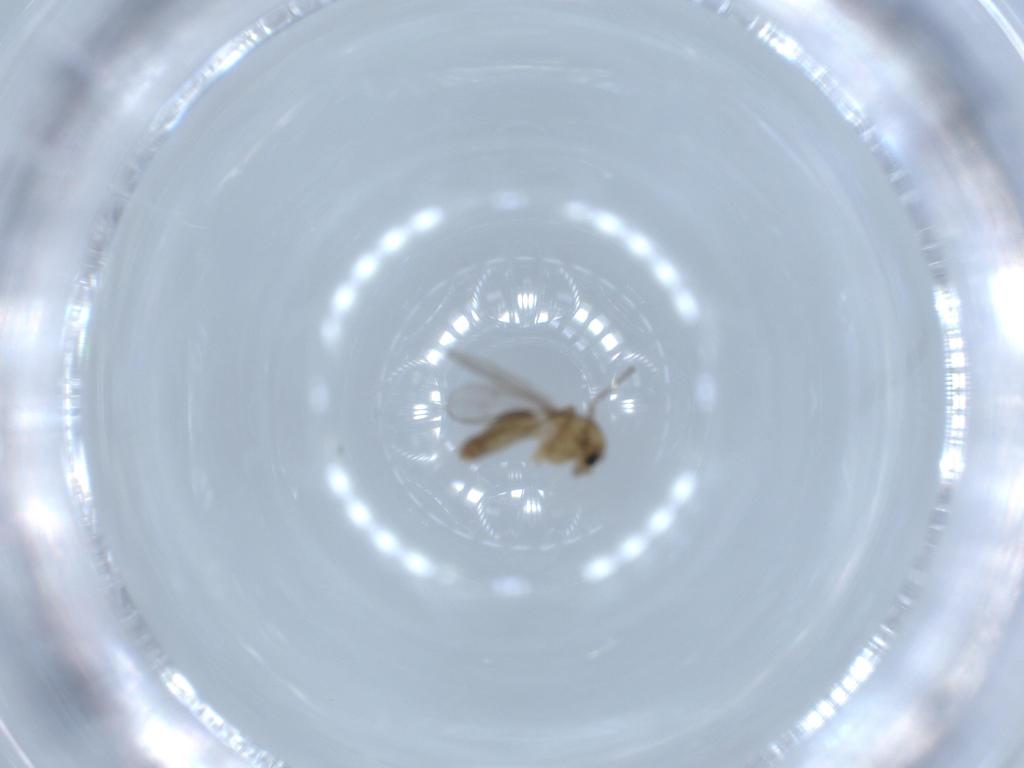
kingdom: Animalia
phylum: Arthropoda
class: Insecta
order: Diptera
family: Chironomidae
